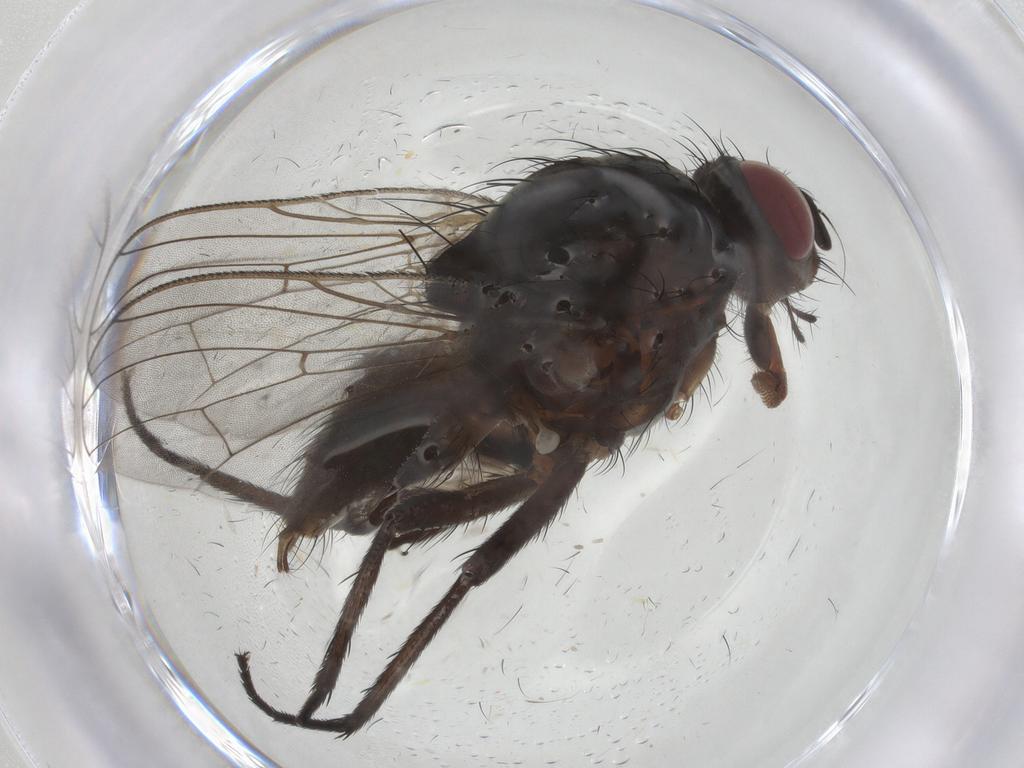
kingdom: Animalia
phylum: Arthropoda
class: Insecta
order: Diptera
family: Anthomyiidae
